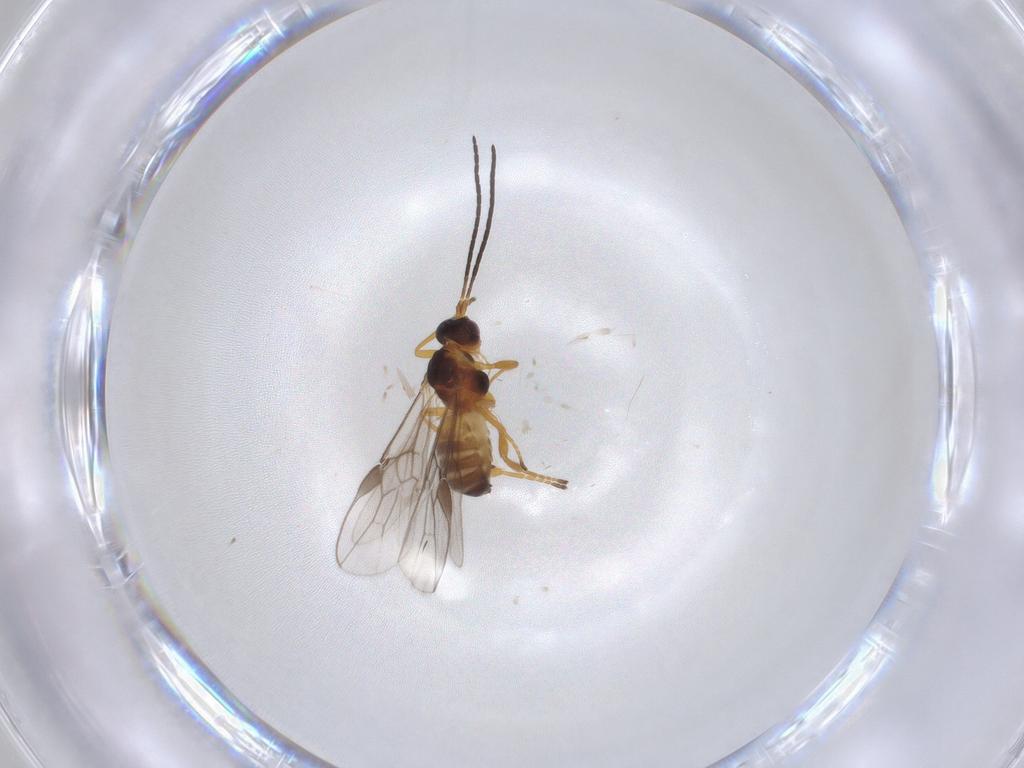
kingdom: Animalia
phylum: Arthropoda
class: Insecta
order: Hymenoptera
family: Braconidae
